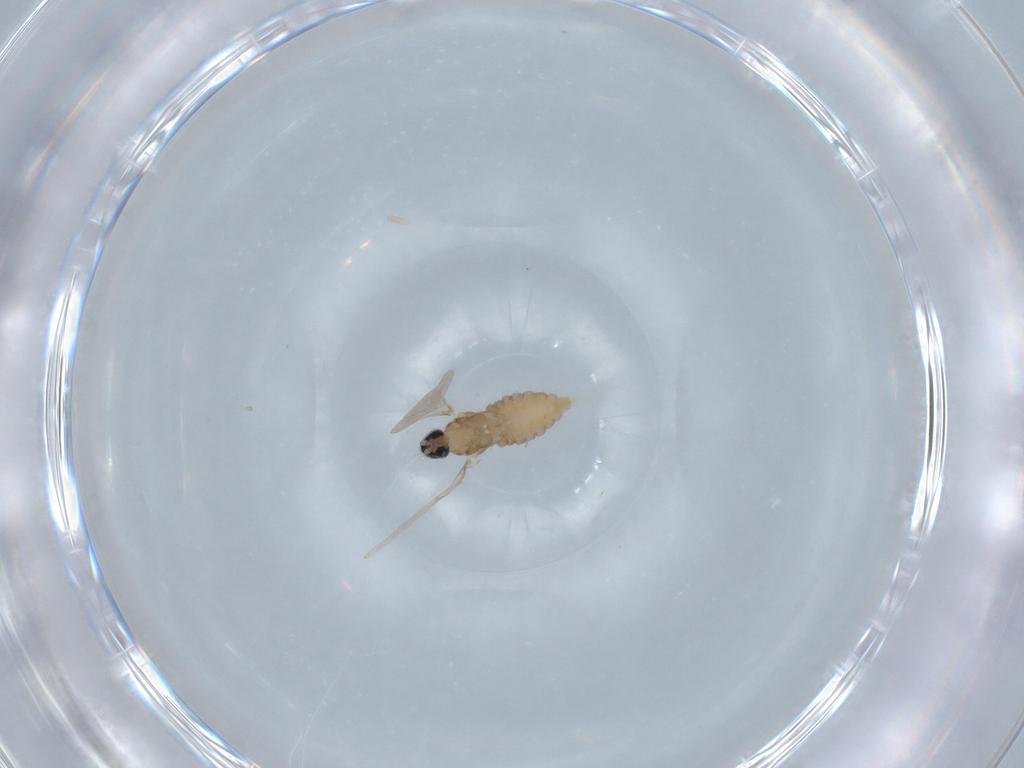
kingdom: Animalia
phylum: Arthropoda
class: Insecta
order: Diptera
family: Cecidomyiidae
